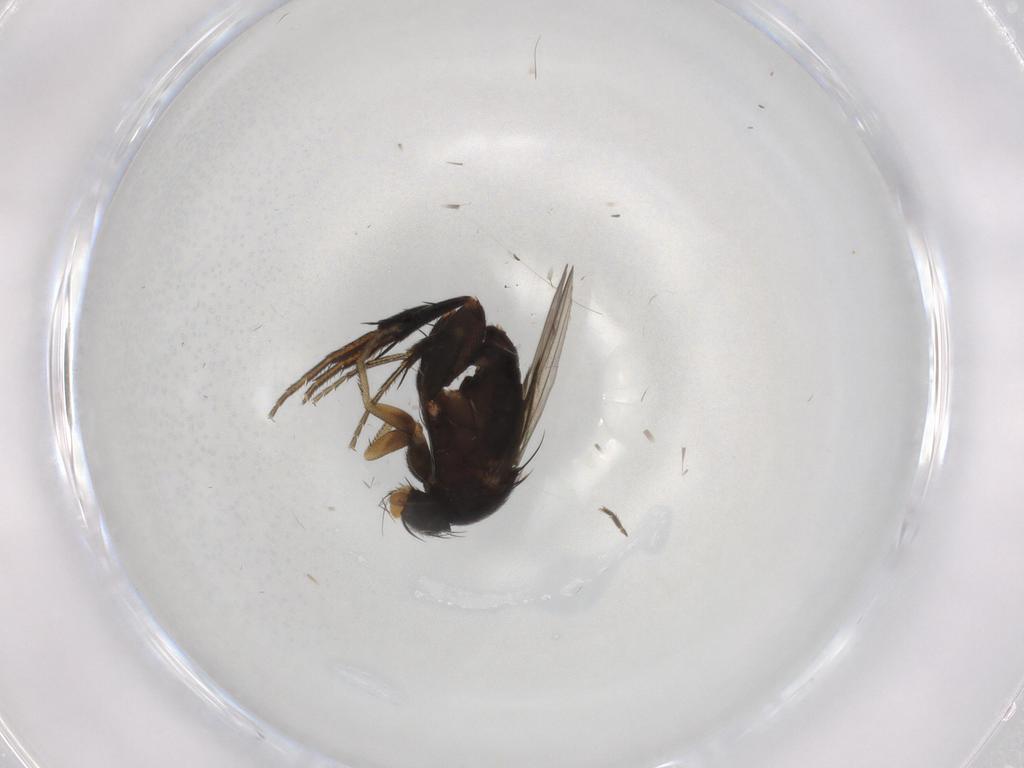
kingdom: Animalia
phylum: Arthropoda
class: Insecta
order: Diptera
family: Phoridae
